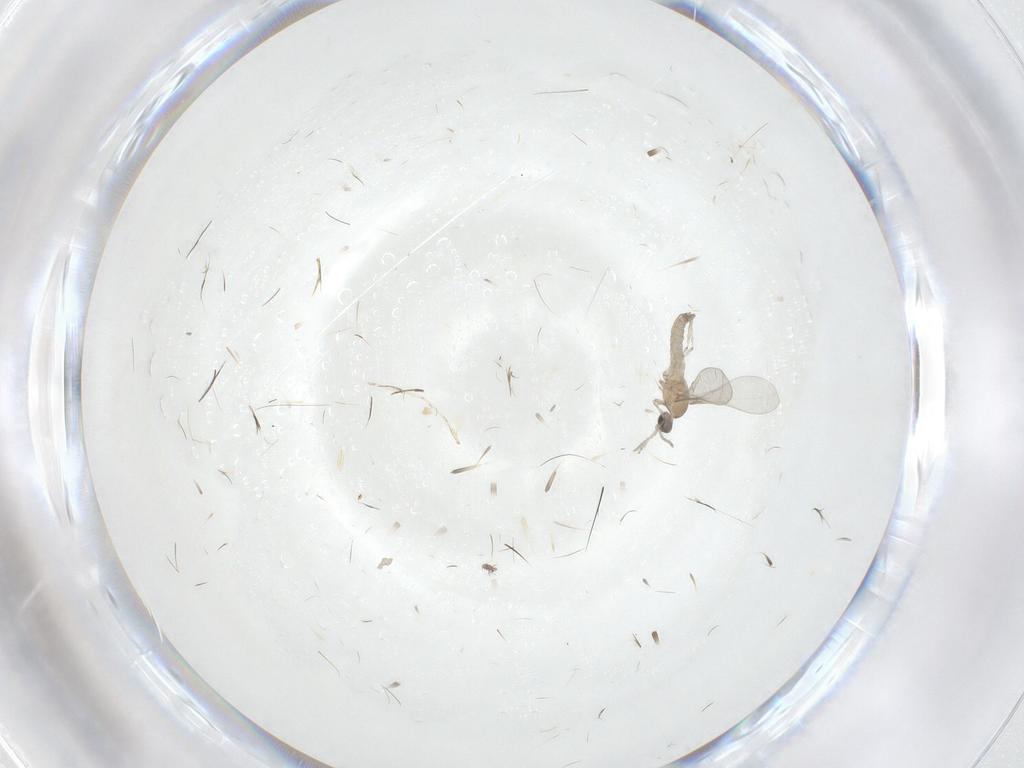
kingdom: Animalia
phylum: Arthropoda
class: Insecta
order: Diptera
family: Cecidomyiidae
